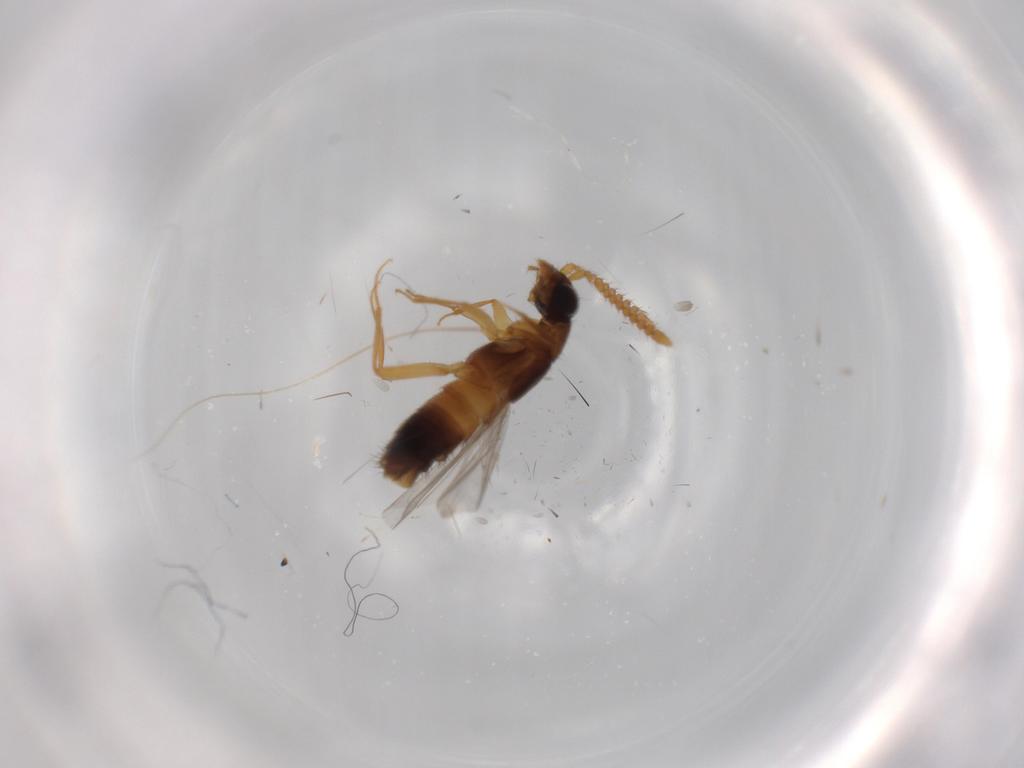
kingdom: Animalia
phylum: Arthropoda
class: Insecta
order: Coleoptera
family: Staphylinidae
